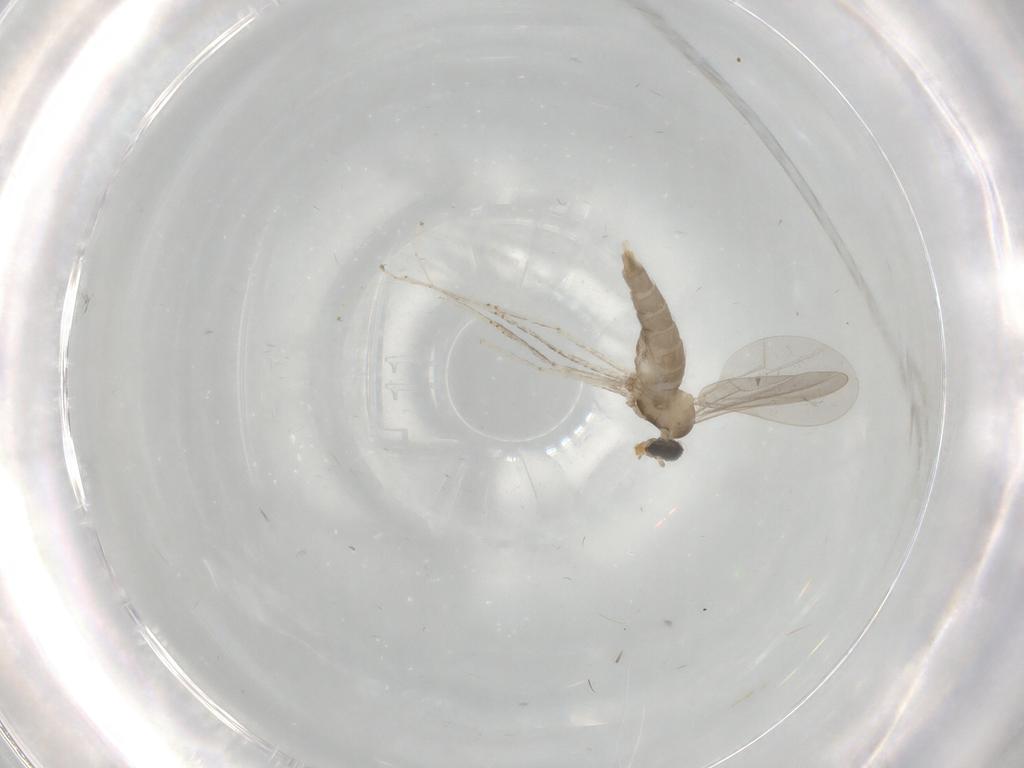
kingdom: Animalia
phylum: Arthropoda
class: Insecta
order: Diptera
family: Cecidomyiidae
